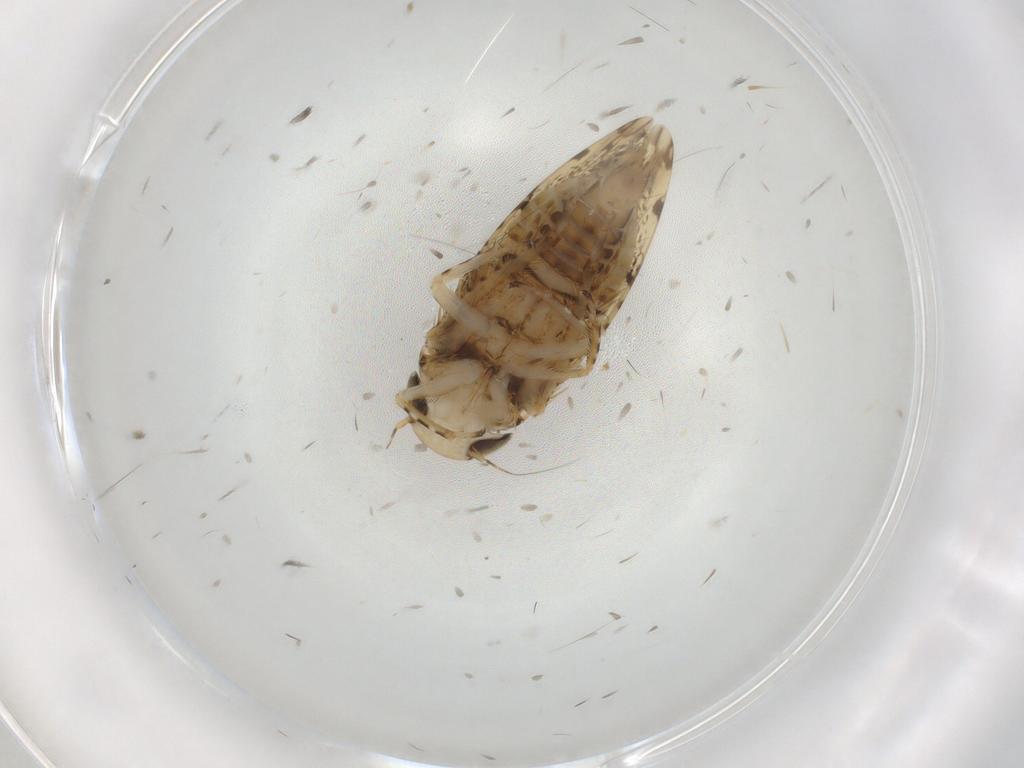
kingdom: Animalia
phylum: Arthropoda
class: Insecta
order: Hemiptera
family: Cicadellidae
